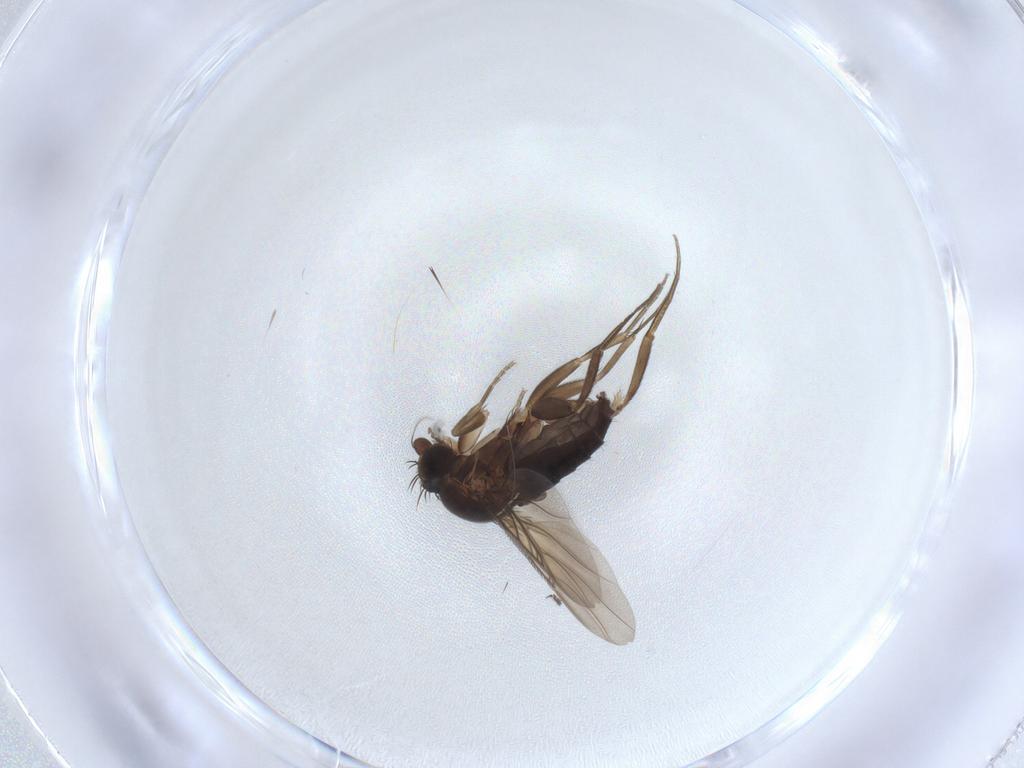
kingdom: Animalia
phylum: Arthropoda
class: Insecta
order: Diptera
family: Phoridae
